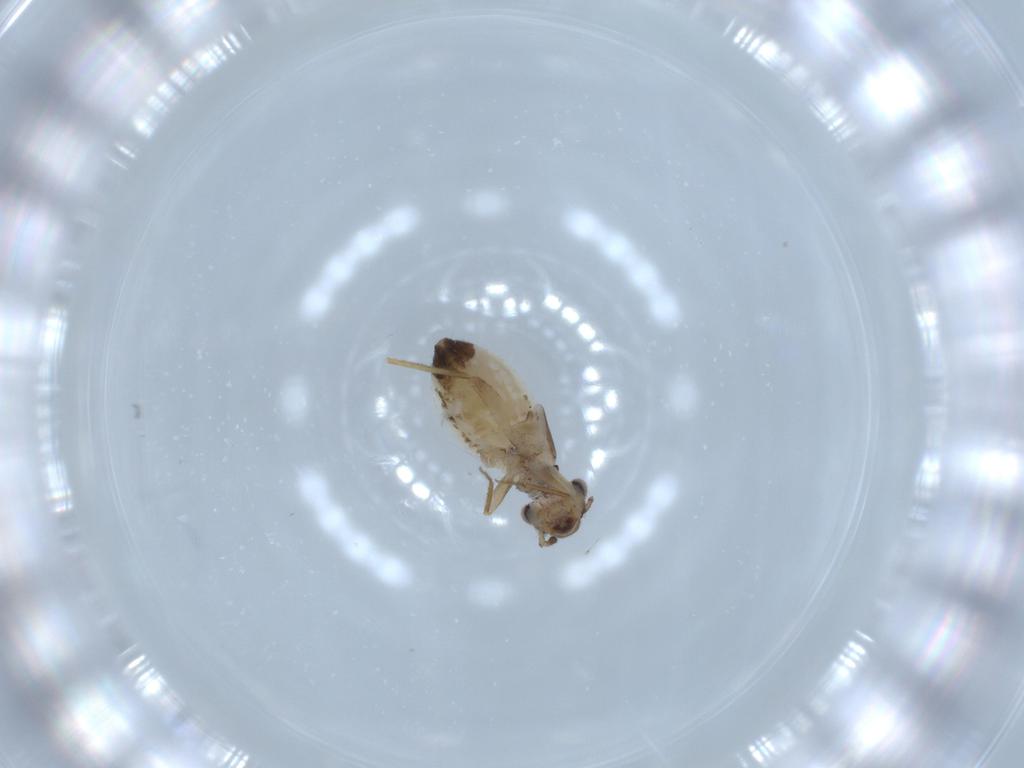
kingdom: Animalia
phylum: Arthropoda
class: Insecta
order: Psocodea
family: Lepidopsocidae
